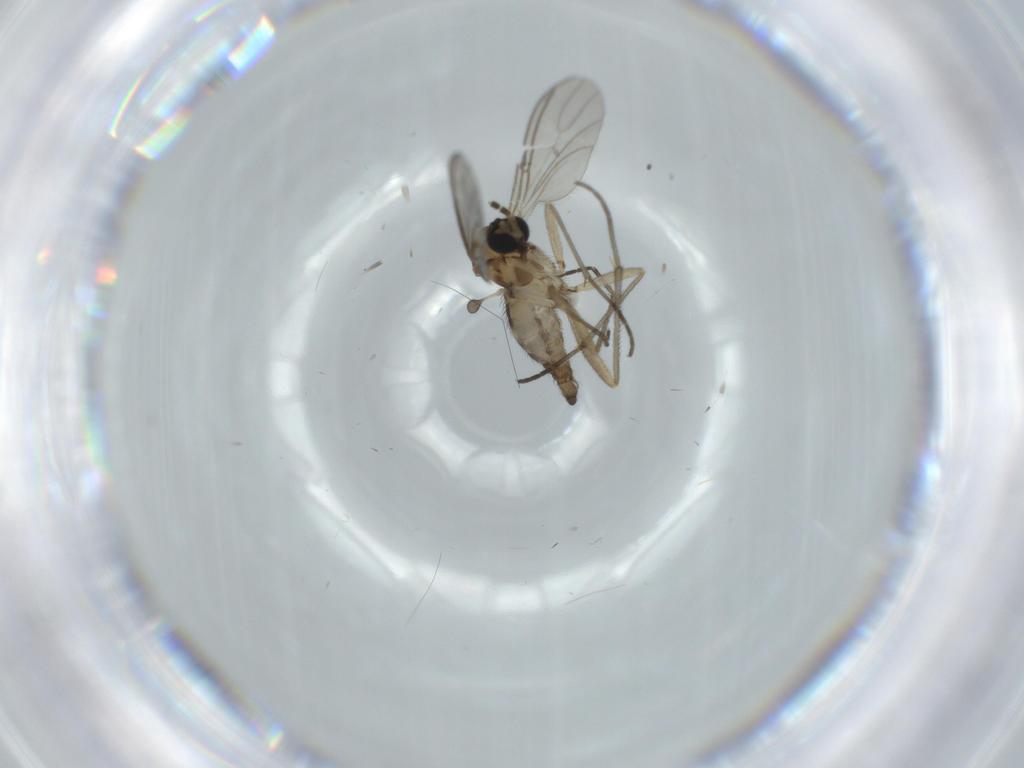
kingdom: Animalia
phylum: Arthropoda
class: Insecta
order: Diptera
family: Sciaridae
